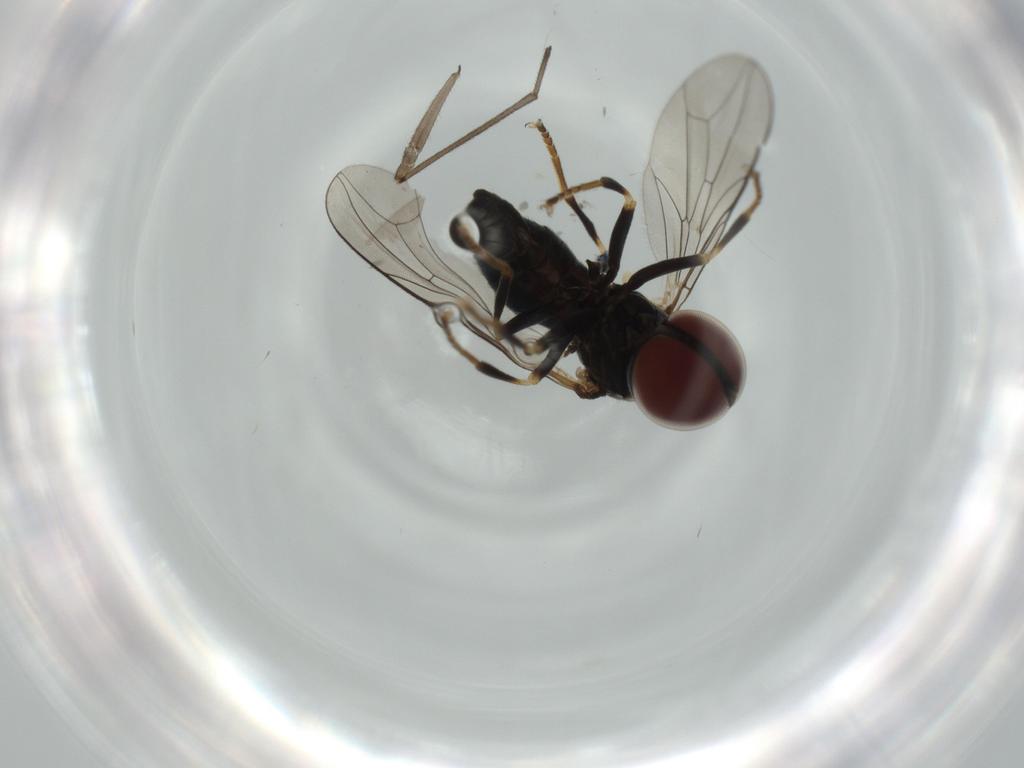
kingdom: Animalia
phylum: Arthropoda
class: Insecta
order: Diptera
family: Pipunculidae
